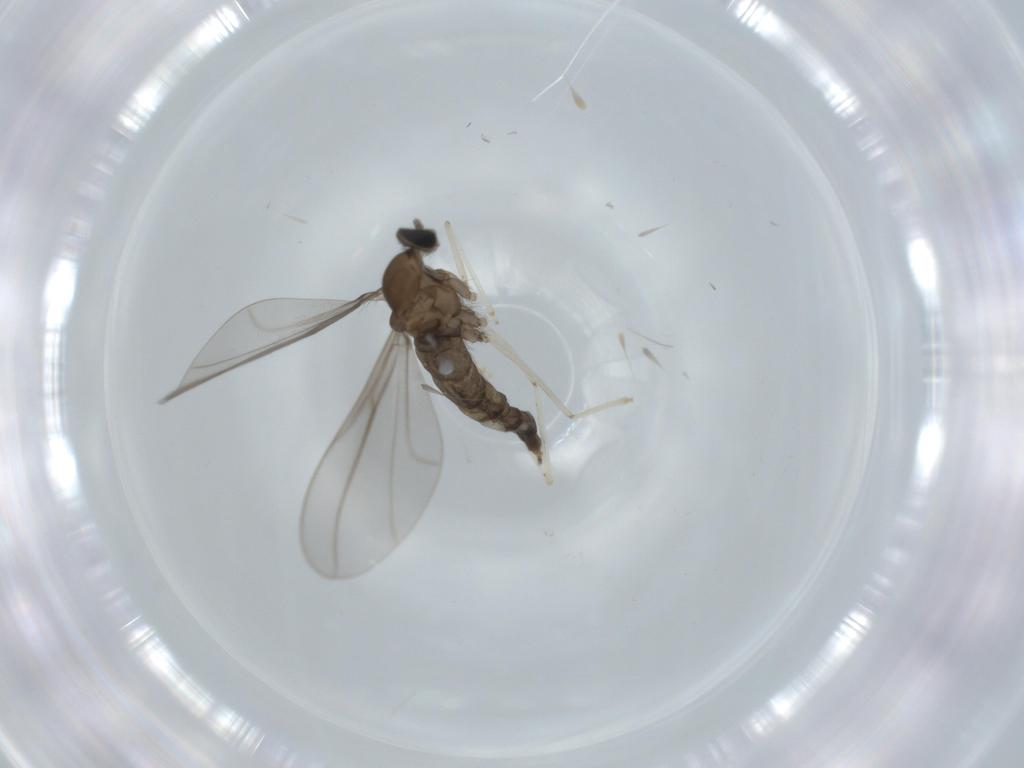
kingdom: Animalia
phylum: Arthropoda
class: Insecta
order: Diptera
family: Cecidomyiidae
